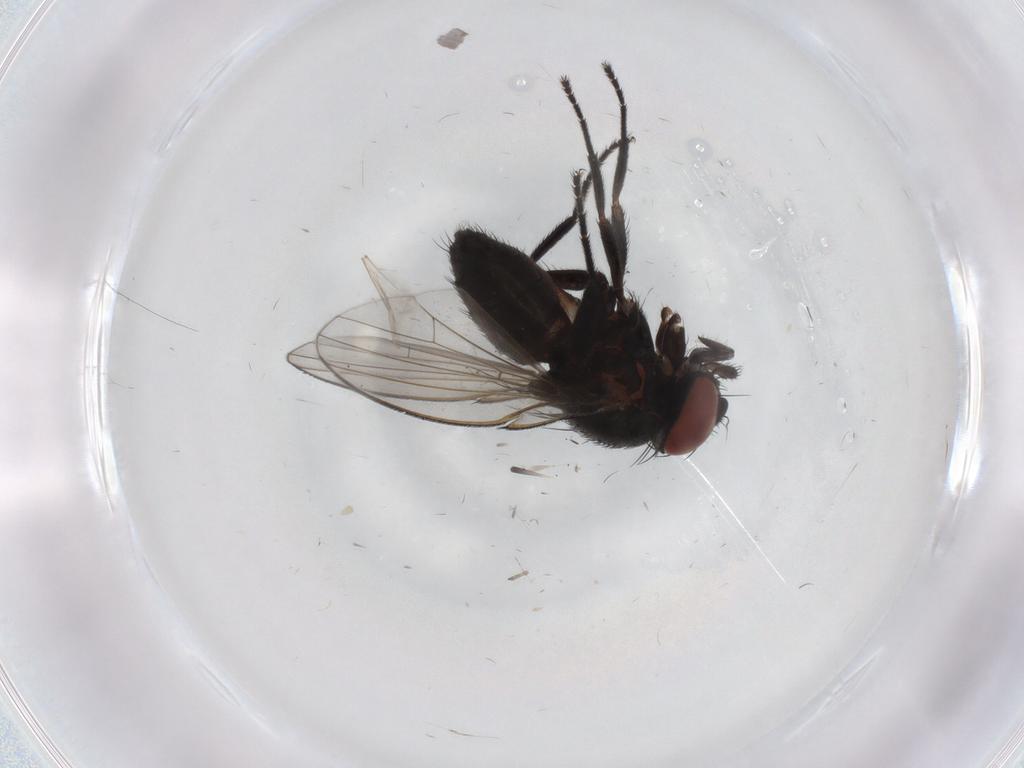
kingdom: Animalia
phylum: Arthropoda
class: Insecta
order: Diptera
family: Milichiidae
